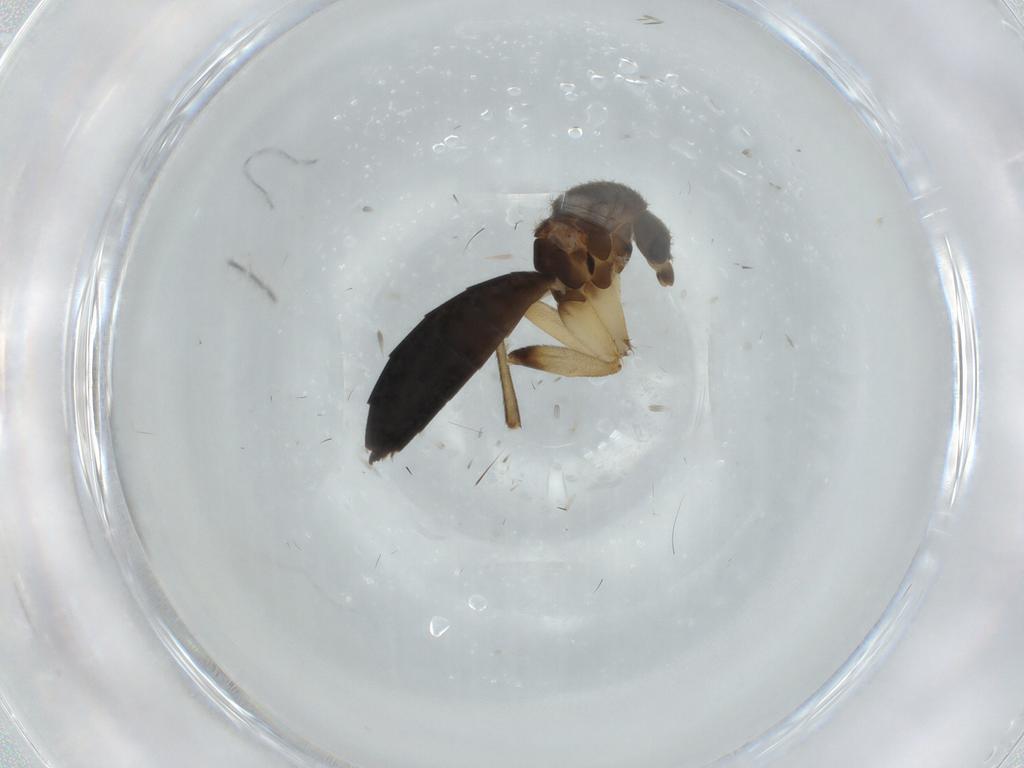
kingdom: Animalia
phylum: Arthropoda
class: Insecta
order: Diptera
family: Mycetophilidae
